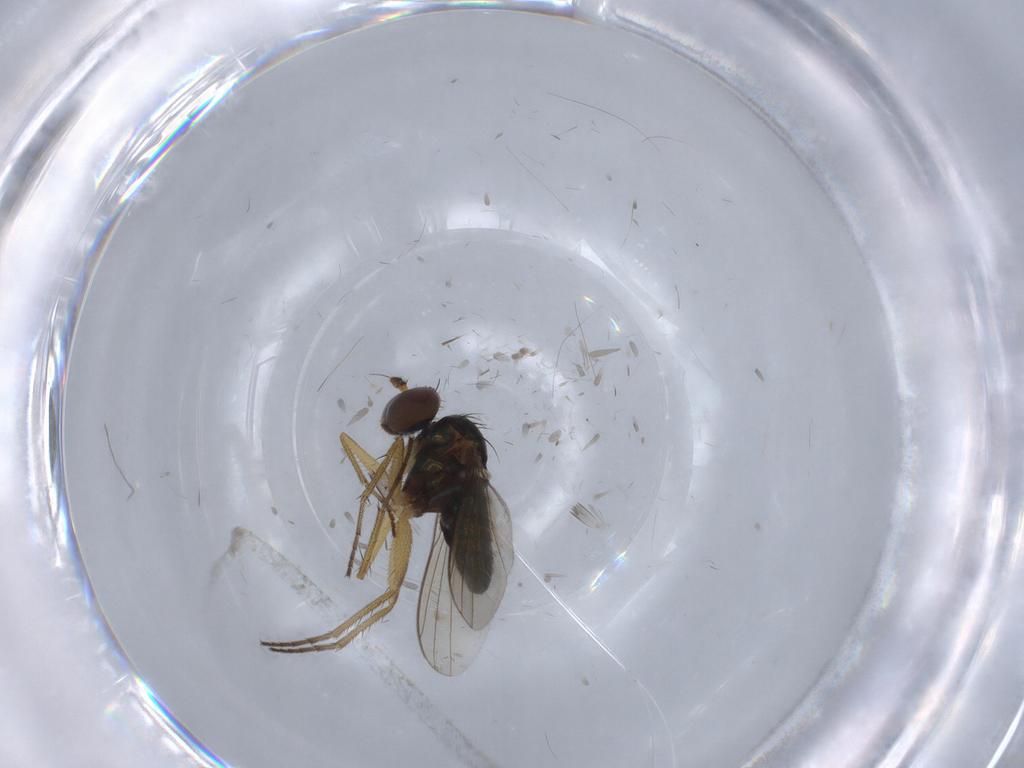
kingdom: Animalia
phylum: Arthropoda
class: Insecta
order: Diptera
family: Dolichopodidae
